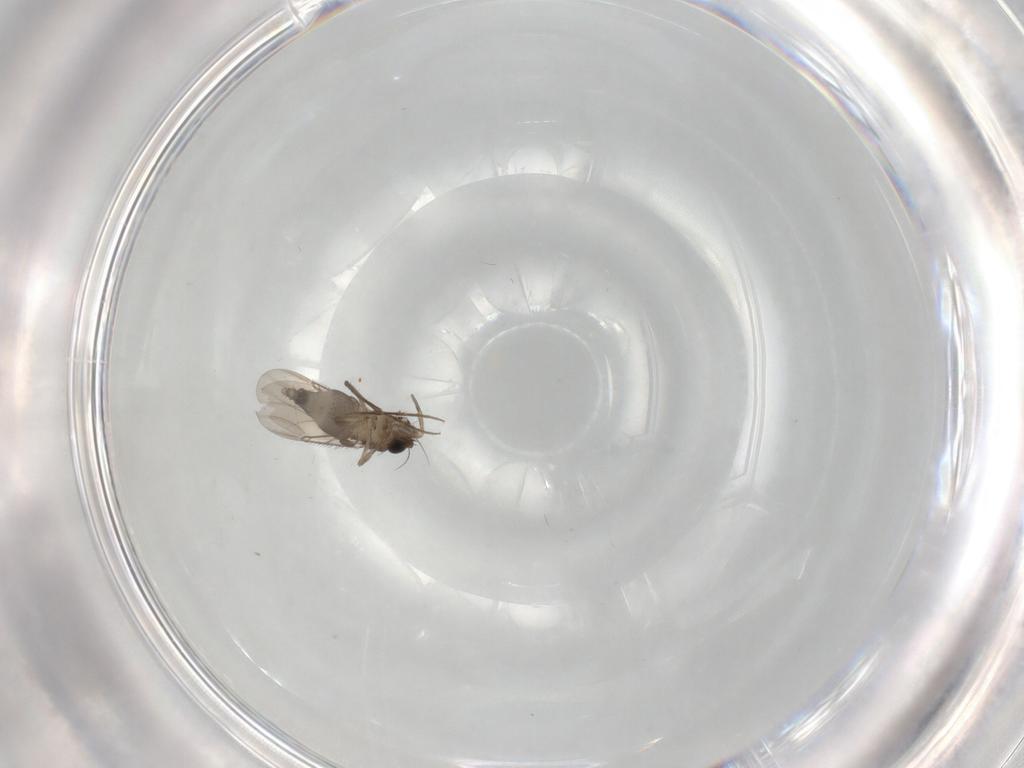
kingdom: Animalia
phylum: Arthropoda
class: Insecta
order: Diptera
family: Phoridae
